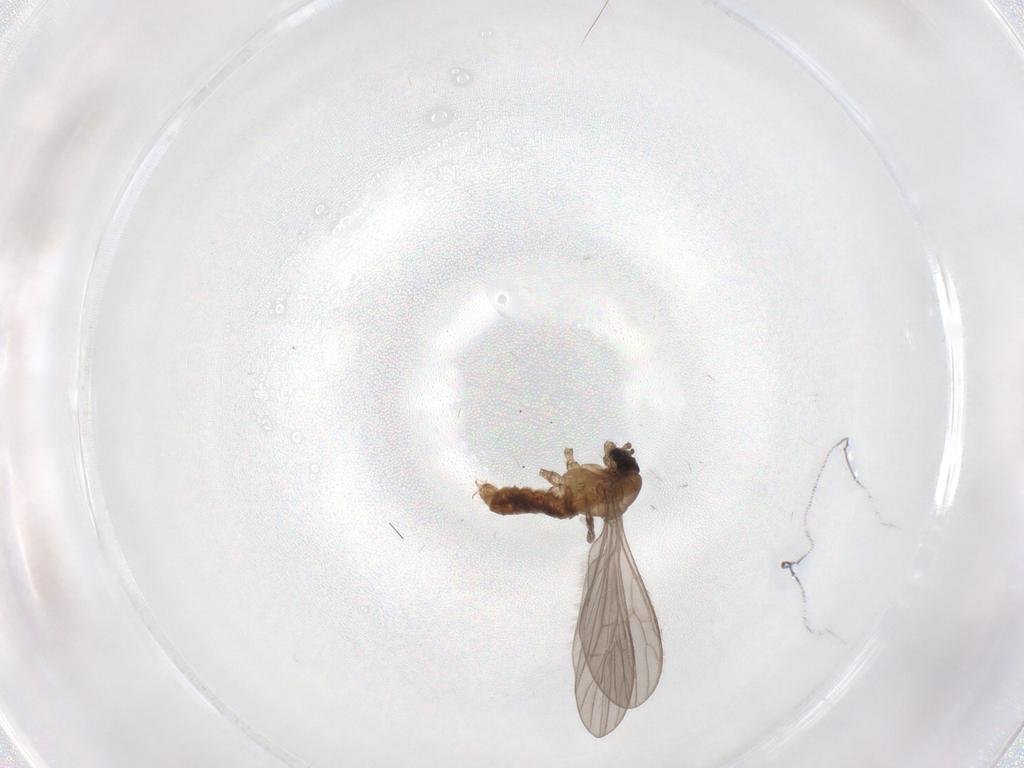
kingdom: Animalia
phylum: Arthropoda
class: Insecta
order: Diptera
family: Limoniidae
